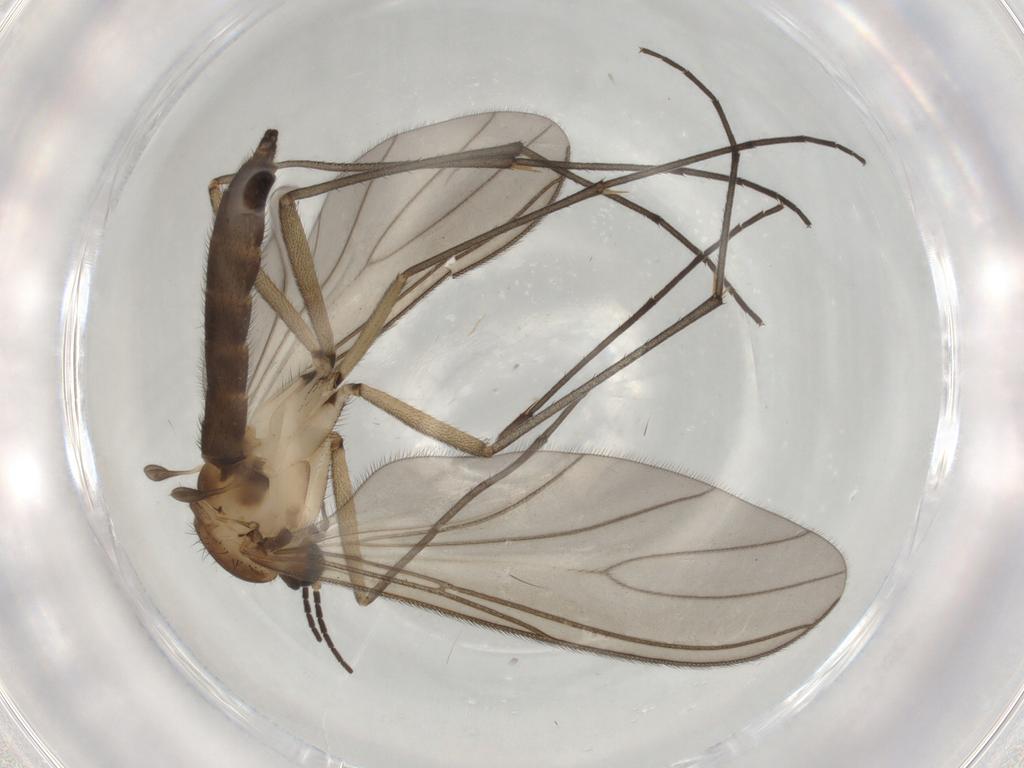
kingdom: Animalia
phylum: Arthropoda
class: Insecta
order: Diptera
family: Sciaridae
